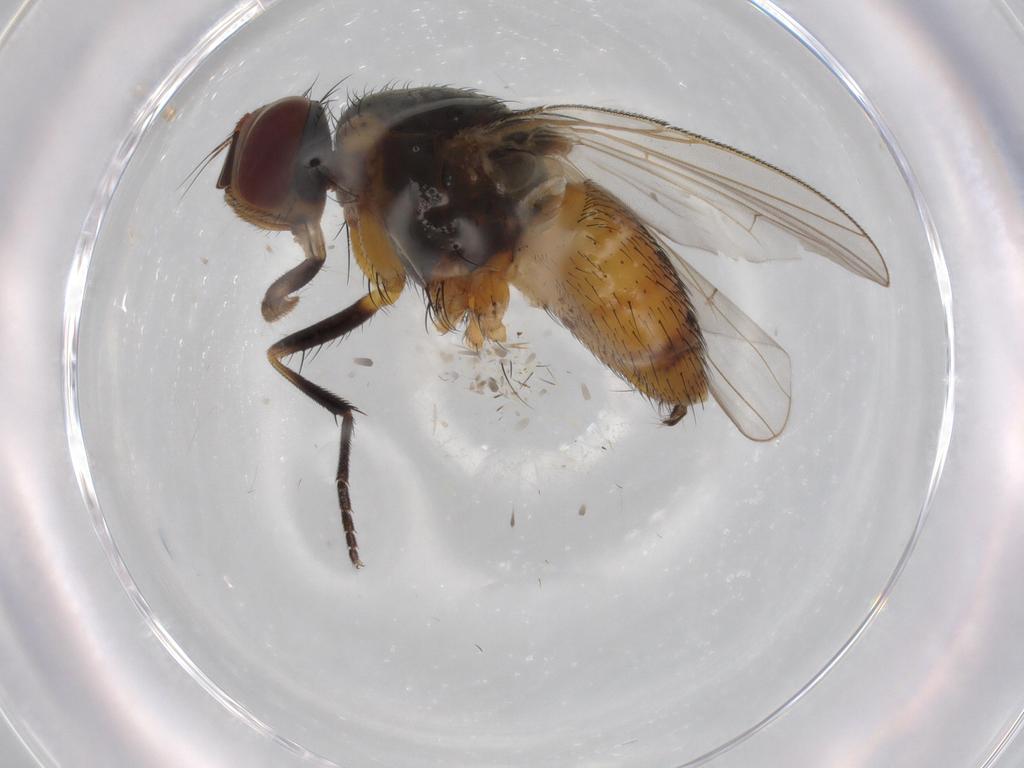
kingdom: Animalia
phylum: Arthropoda
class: Insecta
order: Diptera
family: Muscidae
